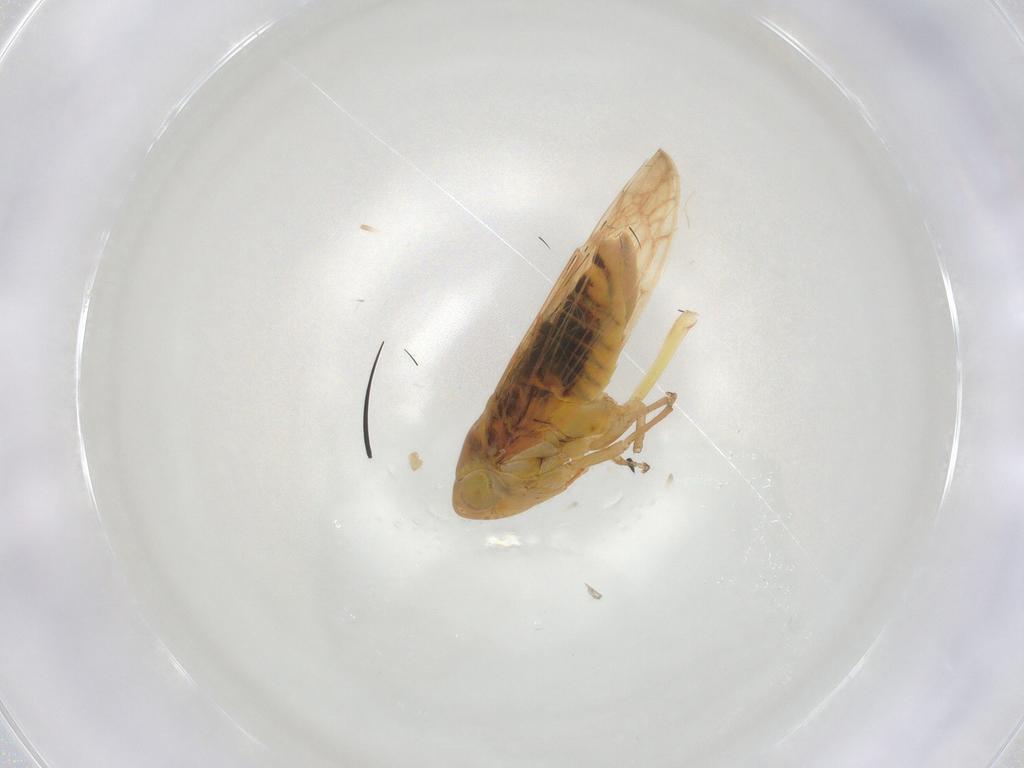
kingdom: Animalia
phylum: Arthropoda
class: Insecta
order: Hemiptera
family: Cicadellidae
